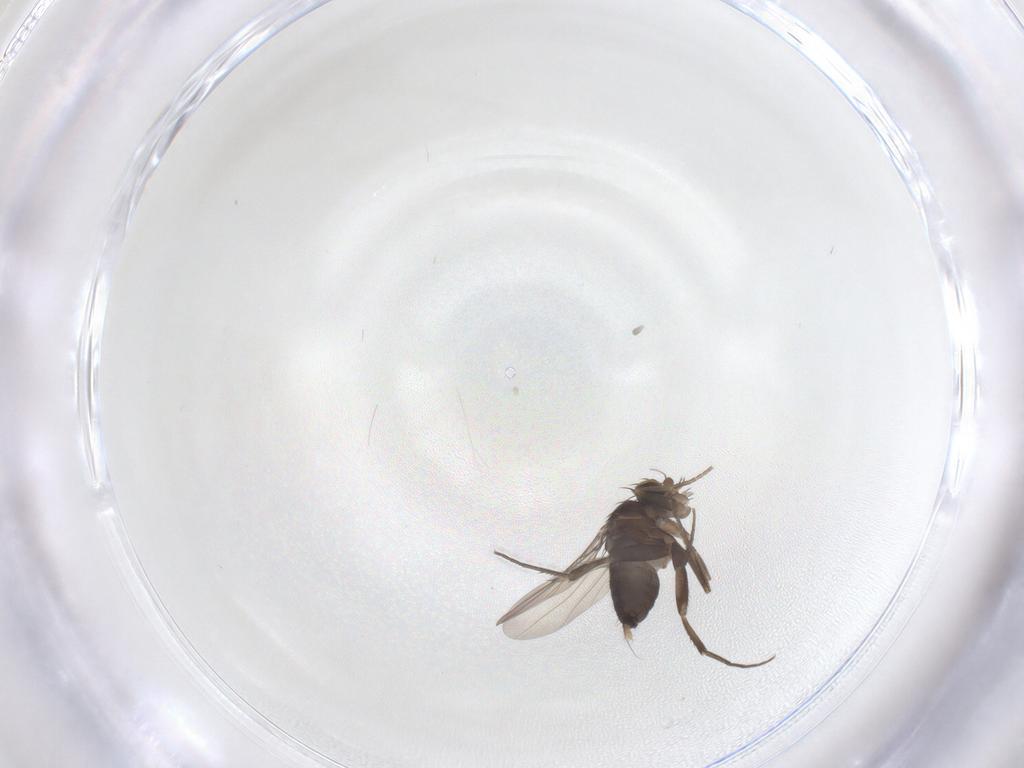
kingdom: Animalia
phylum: Arthropoda
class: Insecta
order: Diptera
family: Phoridae
